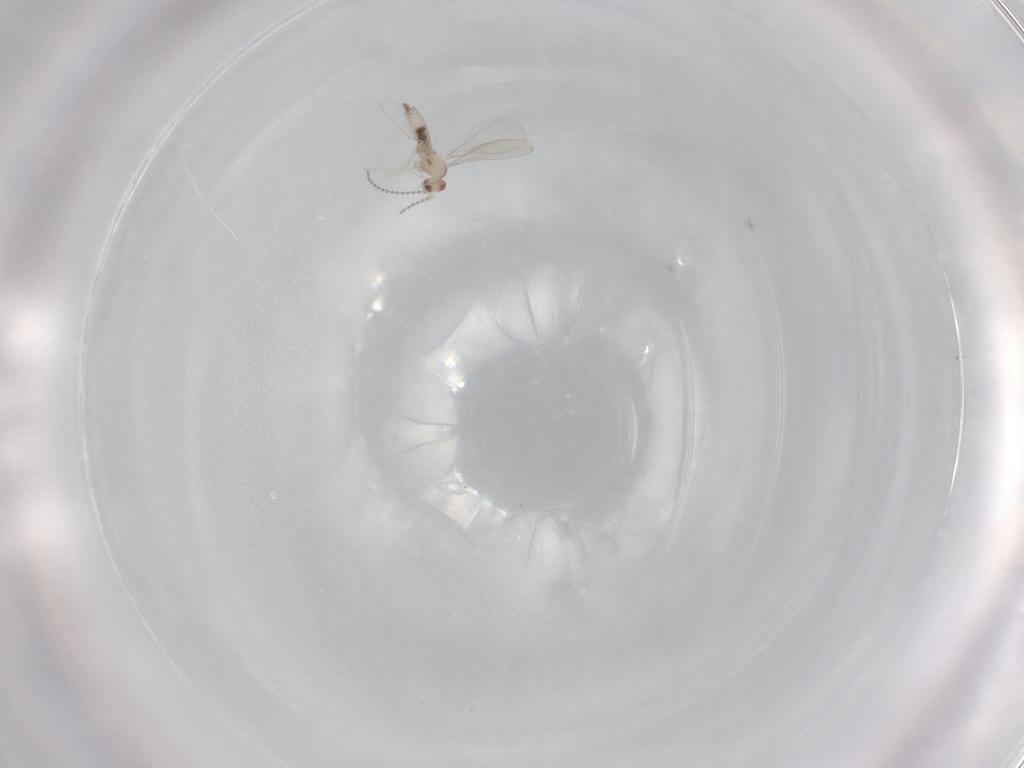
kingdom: Animalia
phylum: Arthropoda
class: Insecta
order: Diptera
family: Cecidomyiidae
